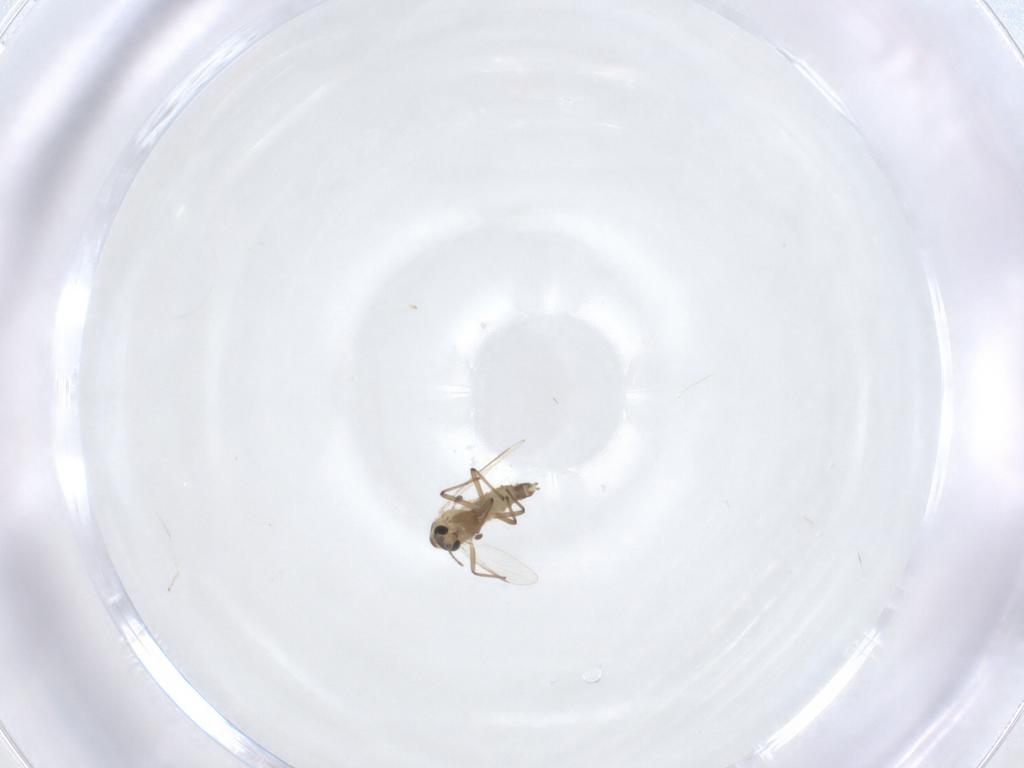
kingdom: Animalia
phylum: Arthropoda
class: Insecta
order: Diptera
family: Chironomidae
